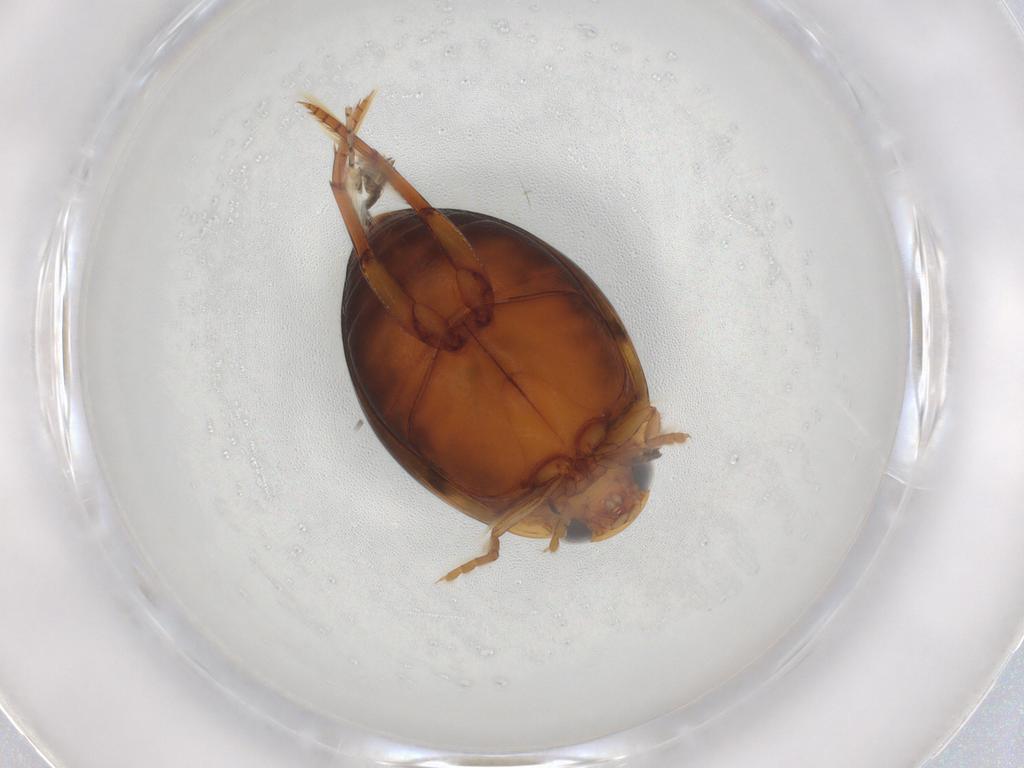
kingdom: Animalia
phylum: Arthropoda
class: Insecta
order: Coleoptera
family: Dytiscidae
